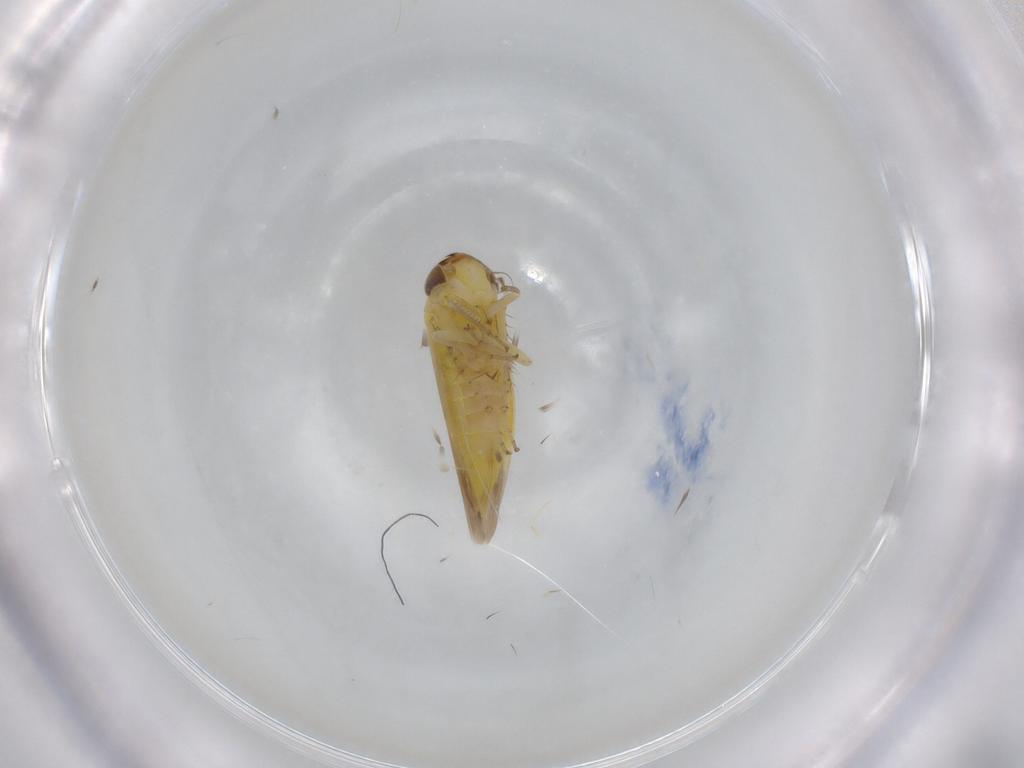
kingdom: Animalia
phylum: Arthropoda
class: Insecta
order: Hemiptera
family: Cicadellidae
